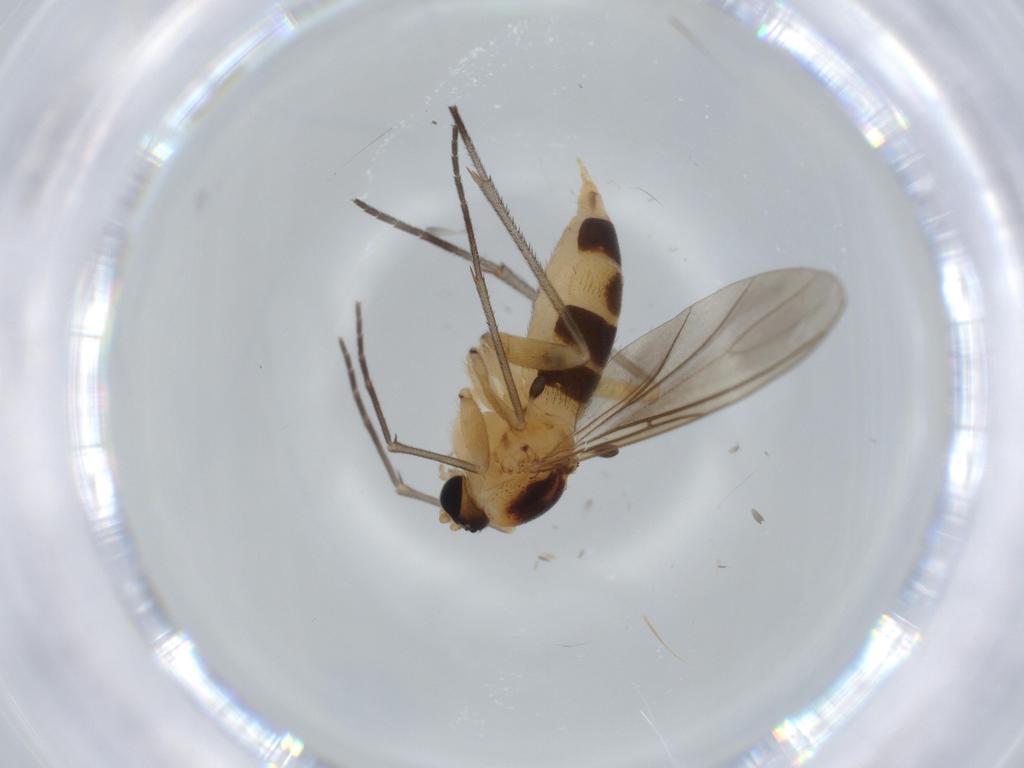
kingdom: Animalia
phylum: Arthropoda
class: Insecta
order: Diptera
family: Sciaridae
